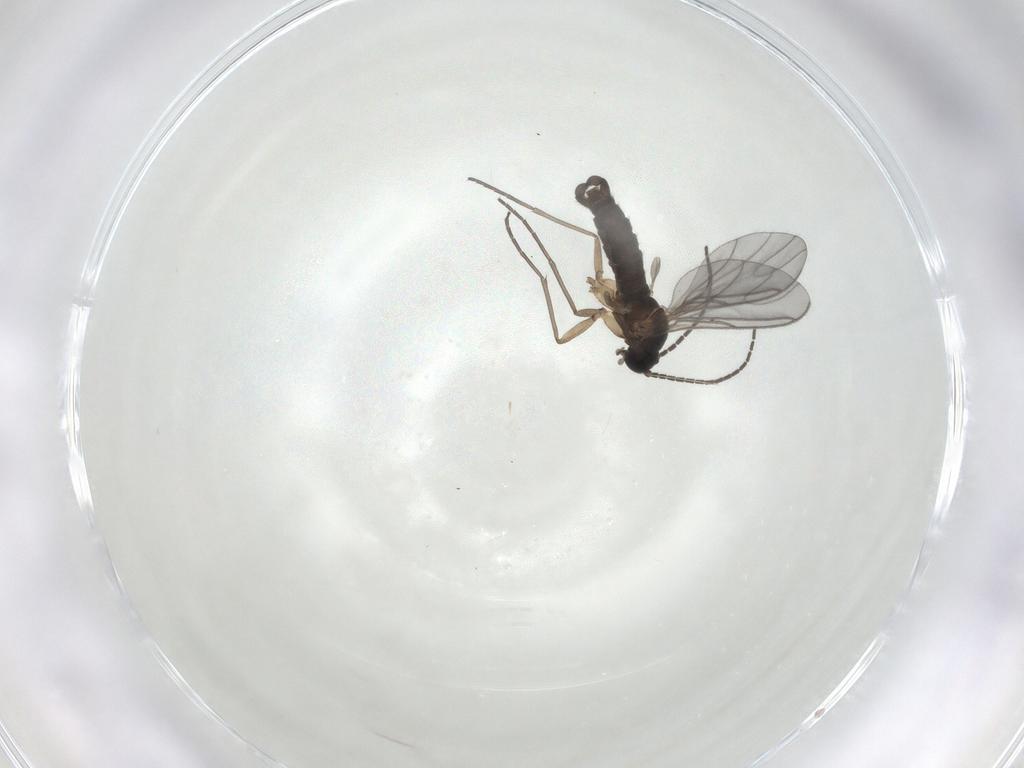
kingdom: Animalia
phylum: Arthropoda
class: Insecta
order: Diptera
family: Sciaridae
